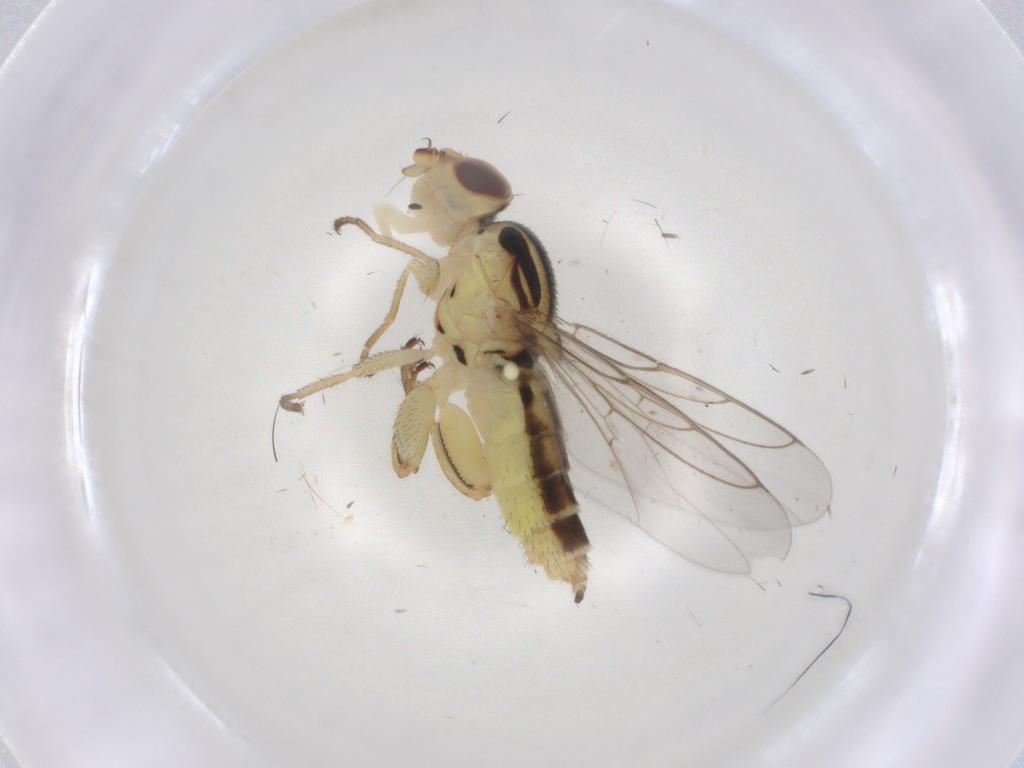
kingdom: Animalia
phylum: Arthropoda
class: Insecta
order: Diptera
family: Chloropidae
